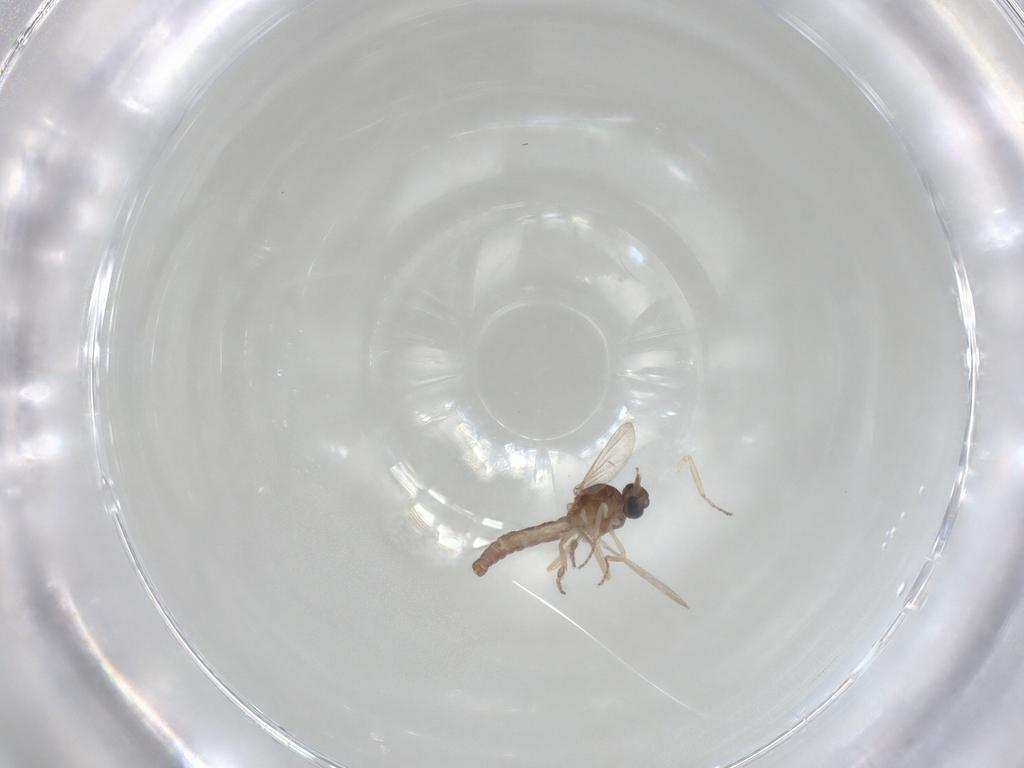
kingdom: Animalia
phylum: Arthropoda
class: Insecta
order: Diptera
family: Ceratopogonidae
